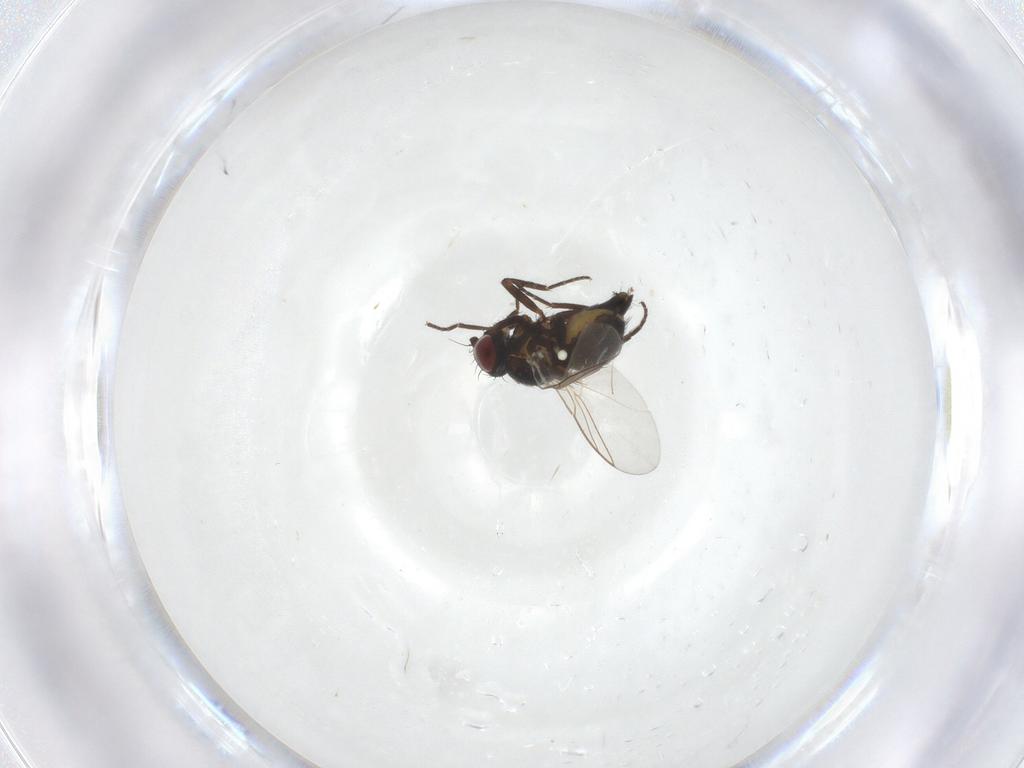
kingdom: Animalia
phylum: Arthropoda
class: Insecta
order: Diptera
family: Agromyzidae
